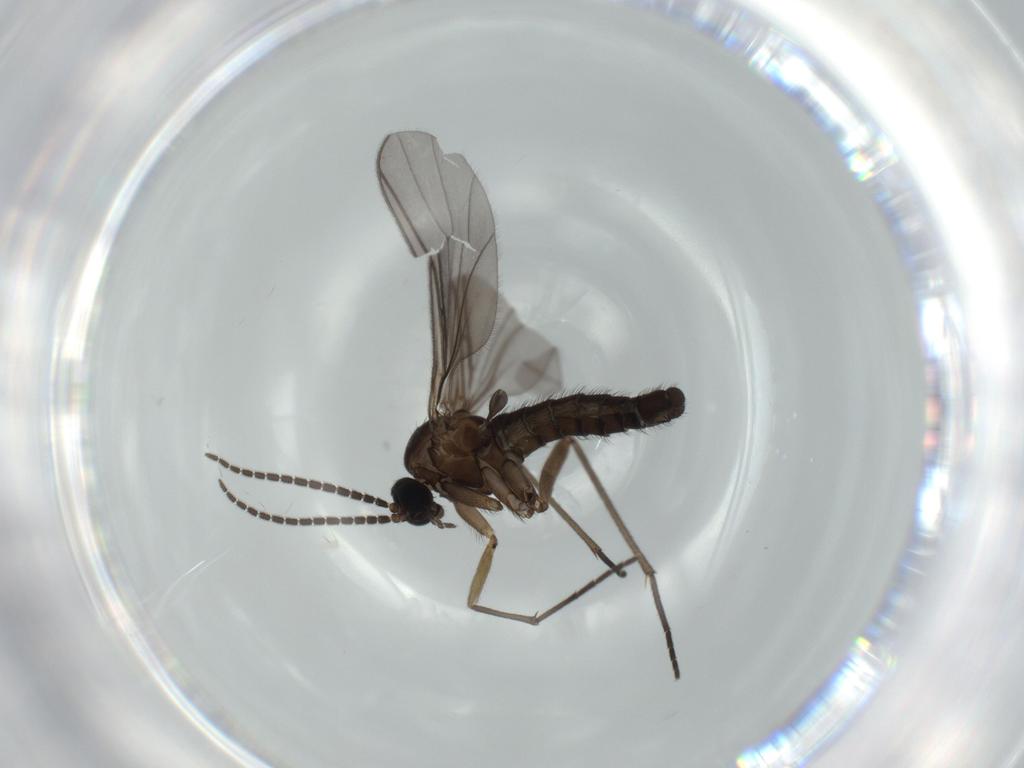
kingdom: Animalia
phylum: Arthropoda
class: Insecta
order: Diptera
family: Sciaridae
